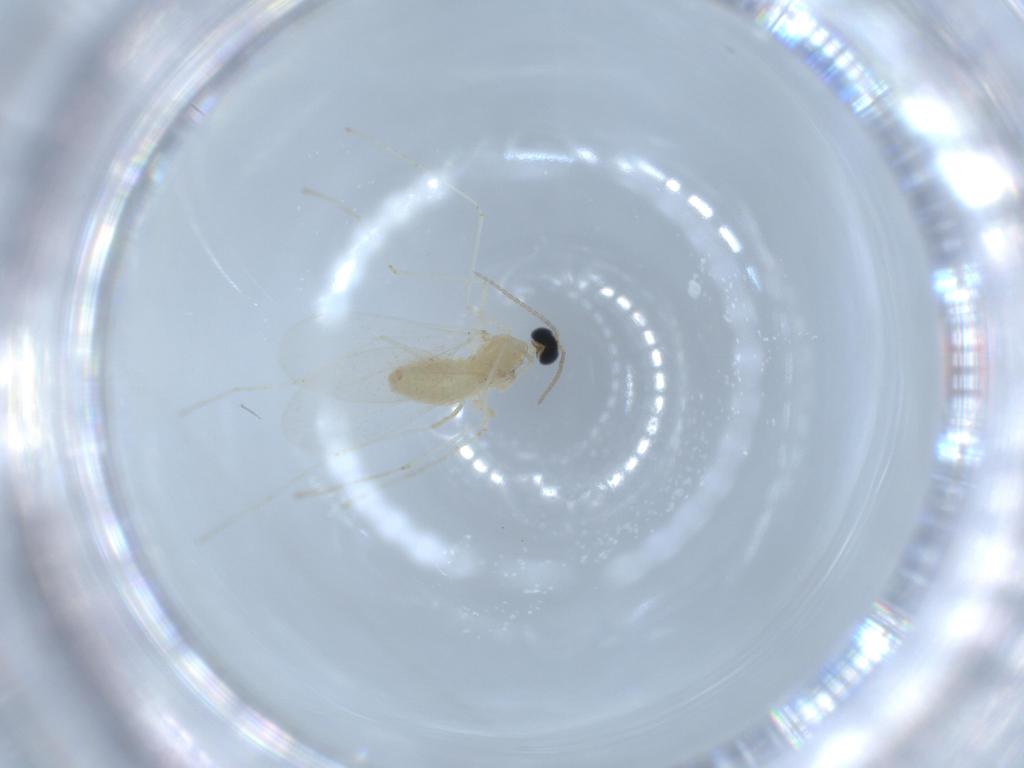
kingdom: Animalia
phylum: Arthropoda
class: Insecta
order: Diptera
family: Cecidomyiidae
